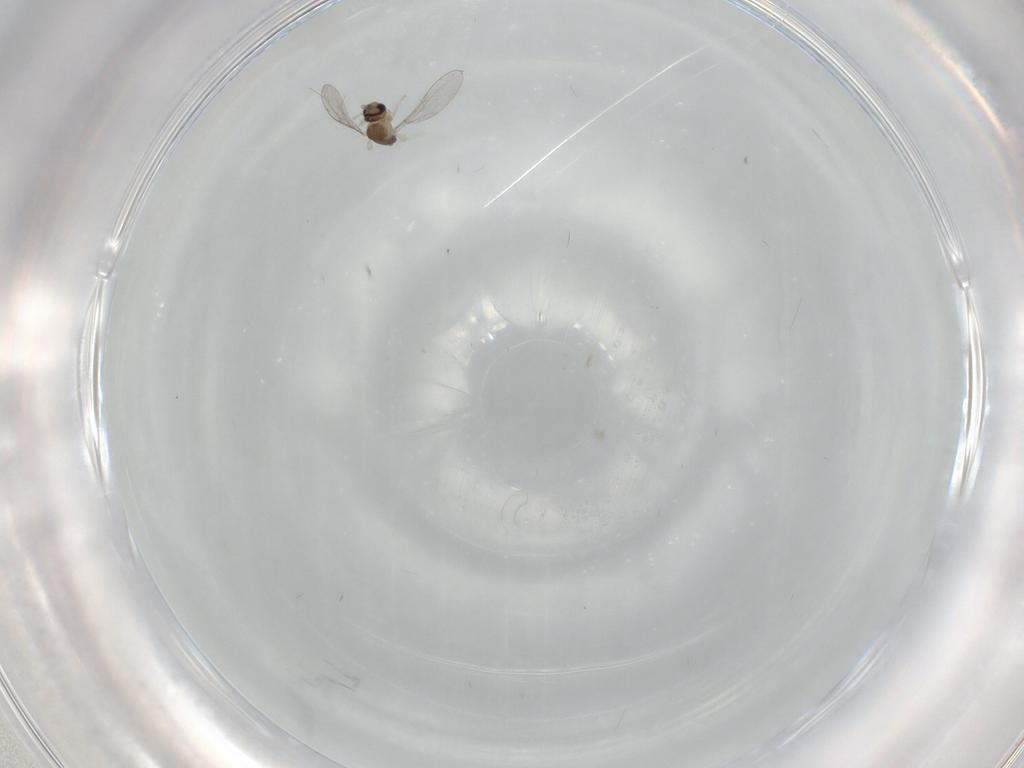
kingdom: Animalia
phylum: Arthropoda
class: Insecta
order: Diptera
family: Cecidomyiidae
